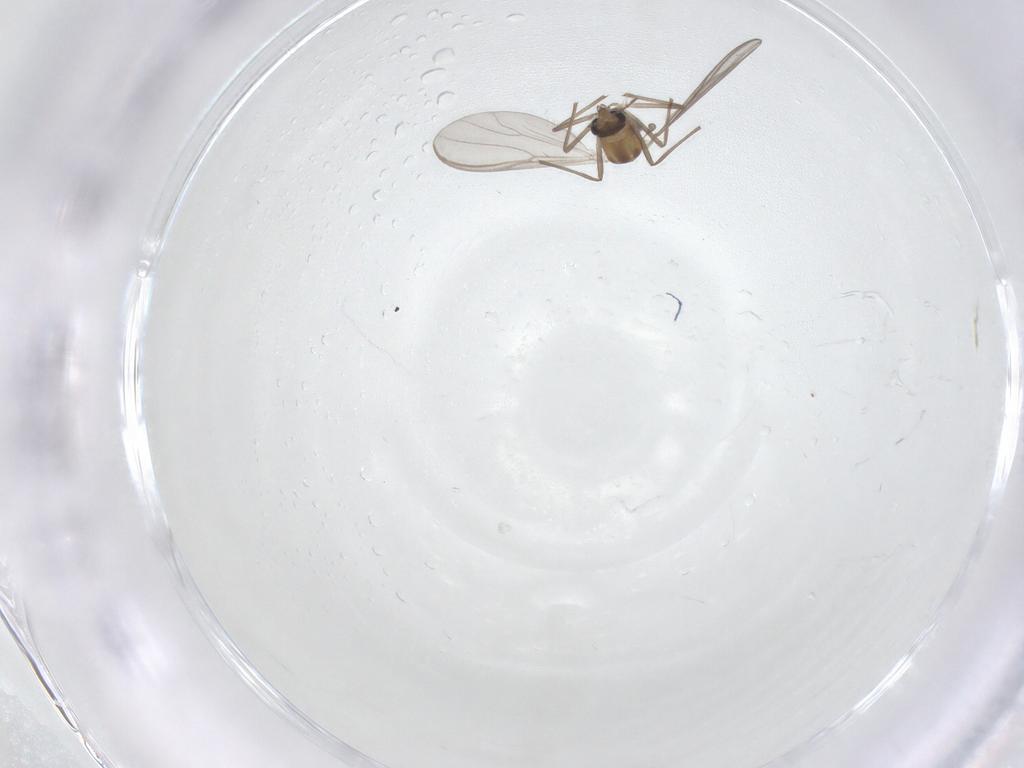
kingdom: Animalia
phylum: Arthropoda
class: Insecta
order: Diptera
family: Chironomidae
